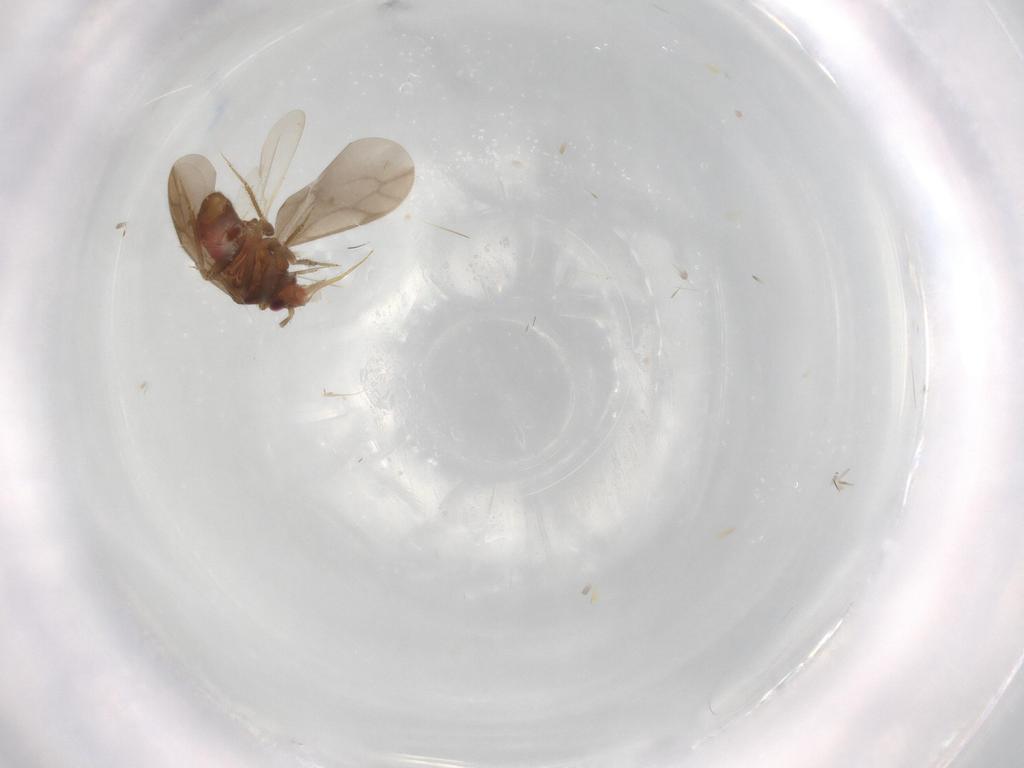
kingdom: Animalia
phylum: Arthropoda
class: Insecta
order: Hemiptera
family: Ceratocombidae
